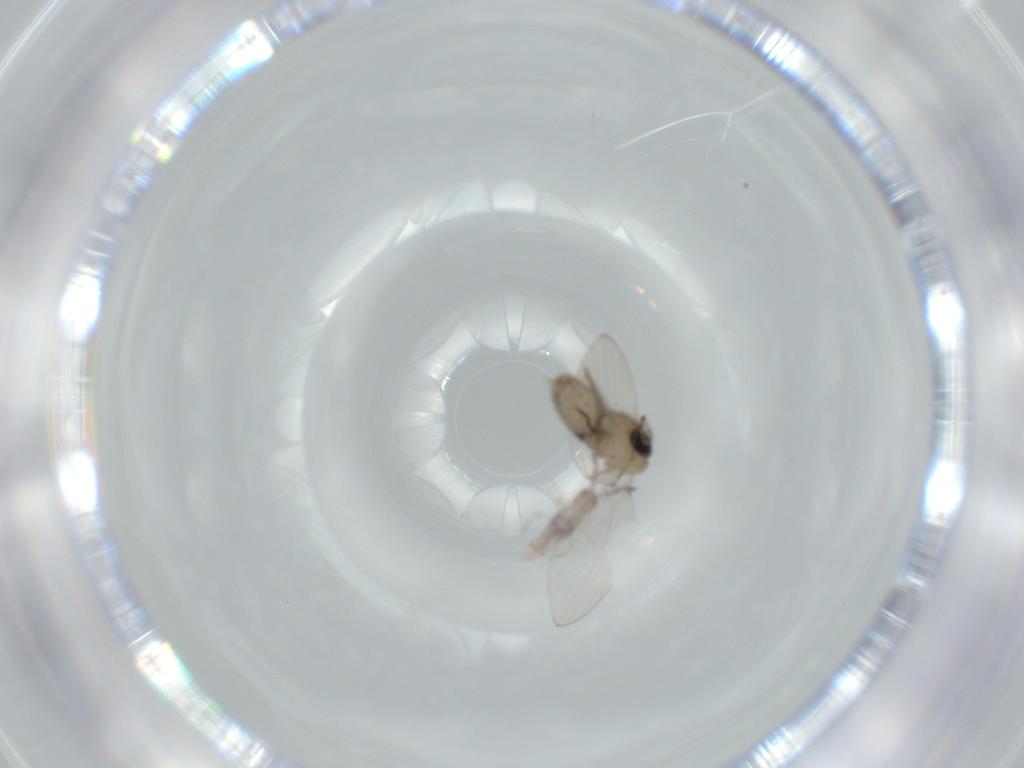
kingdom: Animalia
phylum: Arthropoda
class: Insecta
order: Diptera
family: Psychodidae
